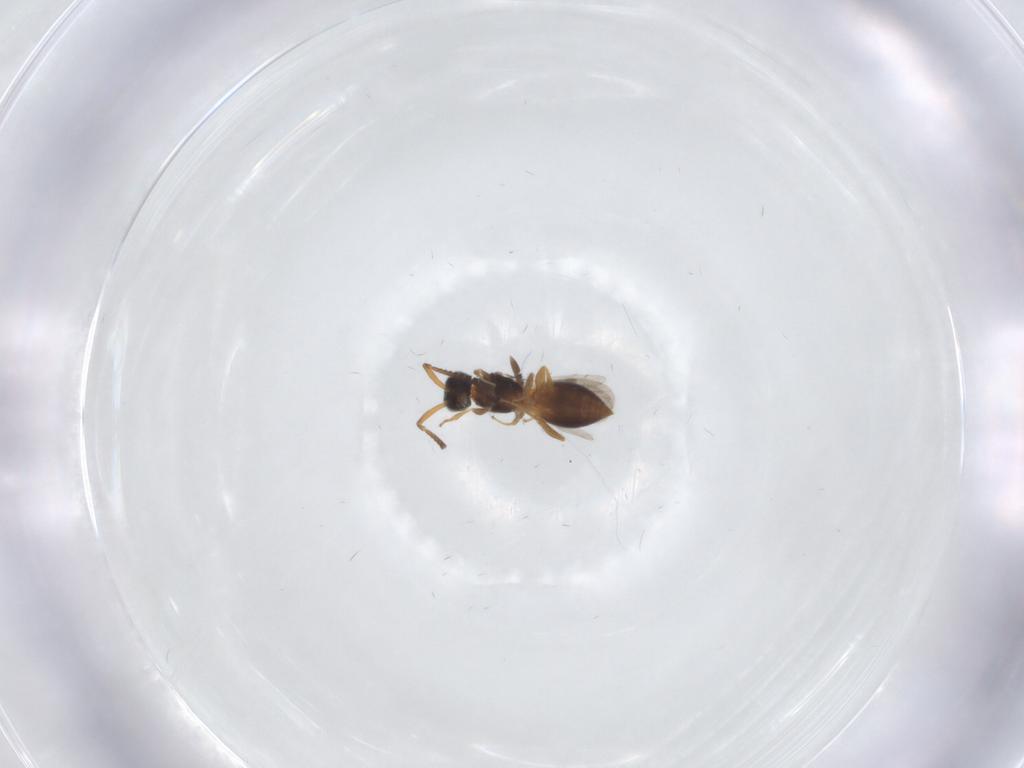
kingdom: Animalia
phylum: Arthropoda
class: Insecta
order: Hymenoptera
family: Megaspilidae
